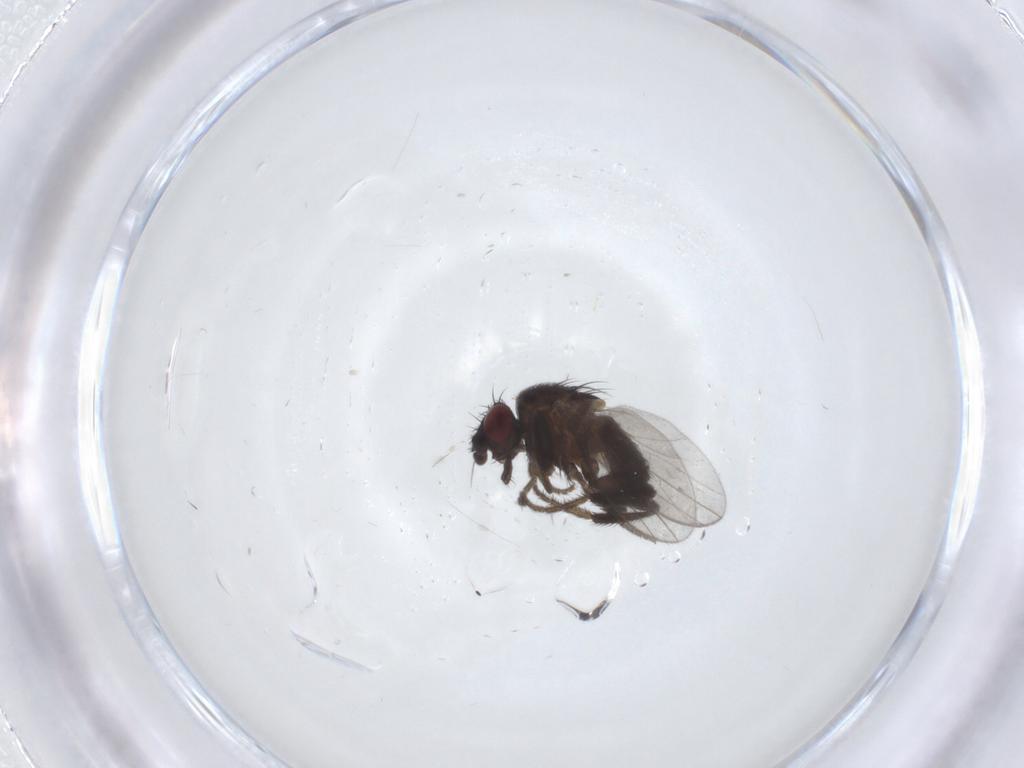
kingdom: Animalia
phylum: Arthropoda
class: Insecta
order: Diptera
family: Milichiidae
